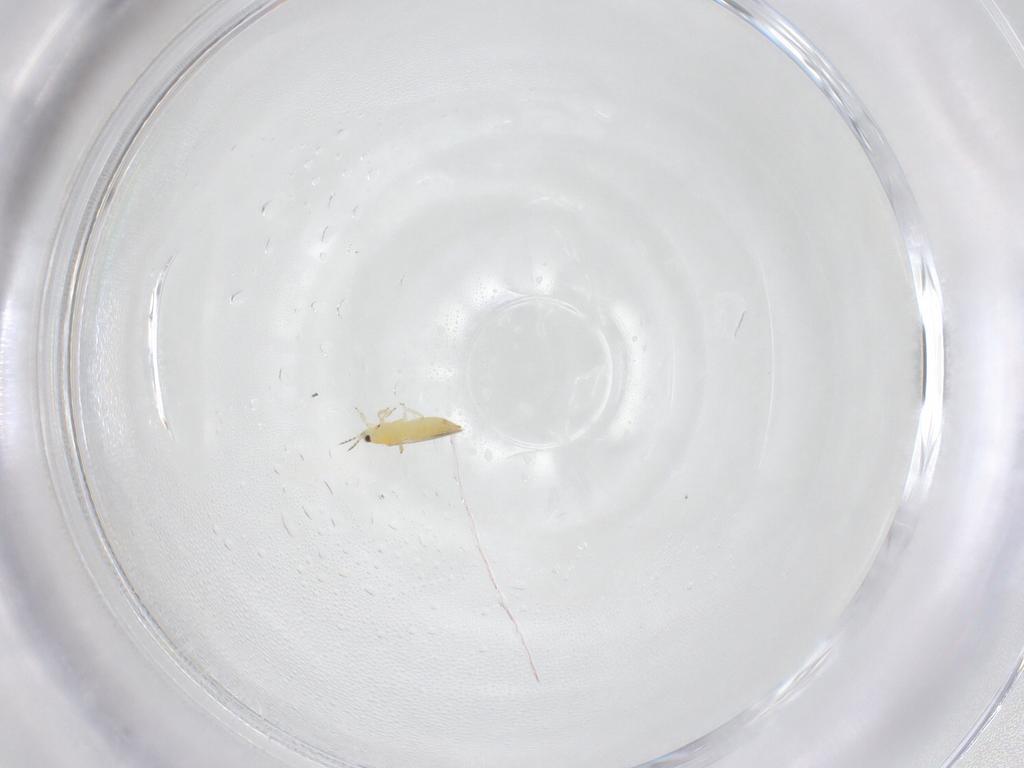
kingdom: Animalia
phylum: Arthropoda
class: Insecta
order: Thysanoptera
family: Thripidae
